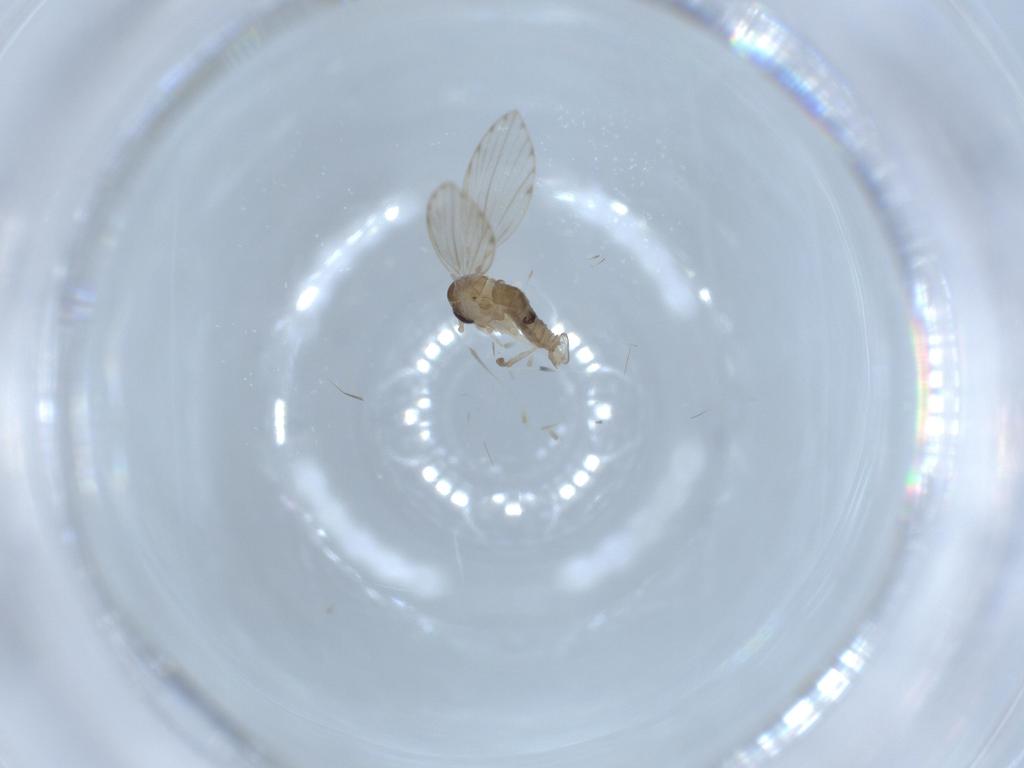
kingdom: Animalia
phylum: Arthropoda
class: Insecta
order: Diptera
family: Psychodidae
